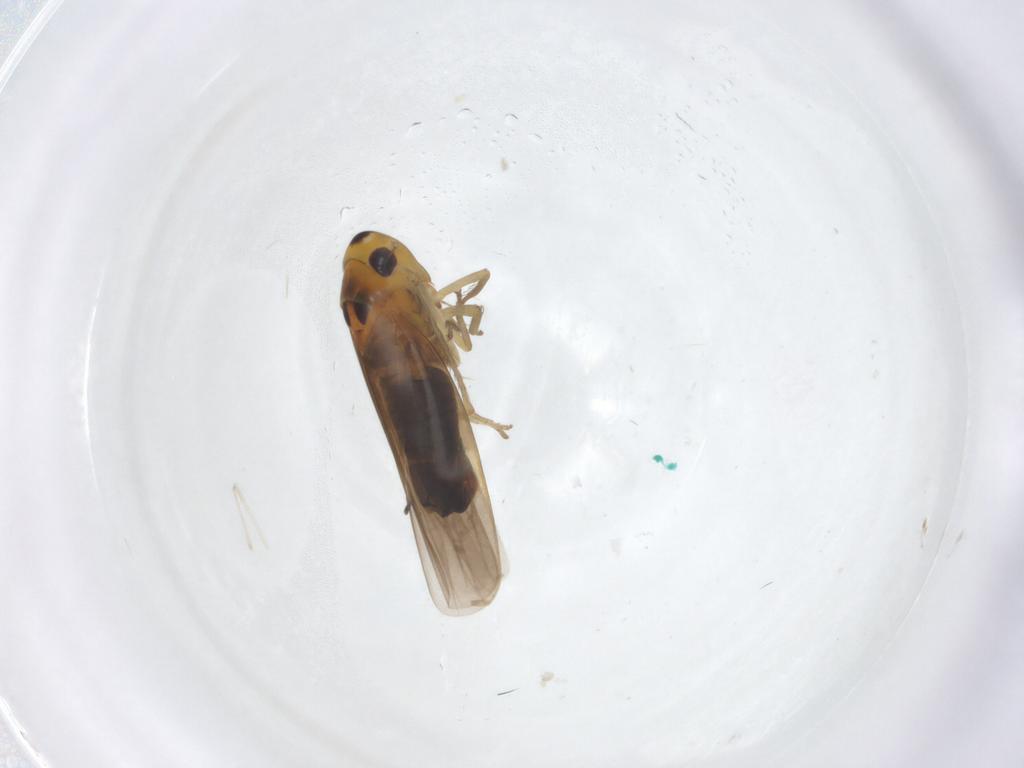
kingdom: Animalia
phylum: Arthropoda
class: Insecta
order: Hemiptera
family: Cicadellidae
